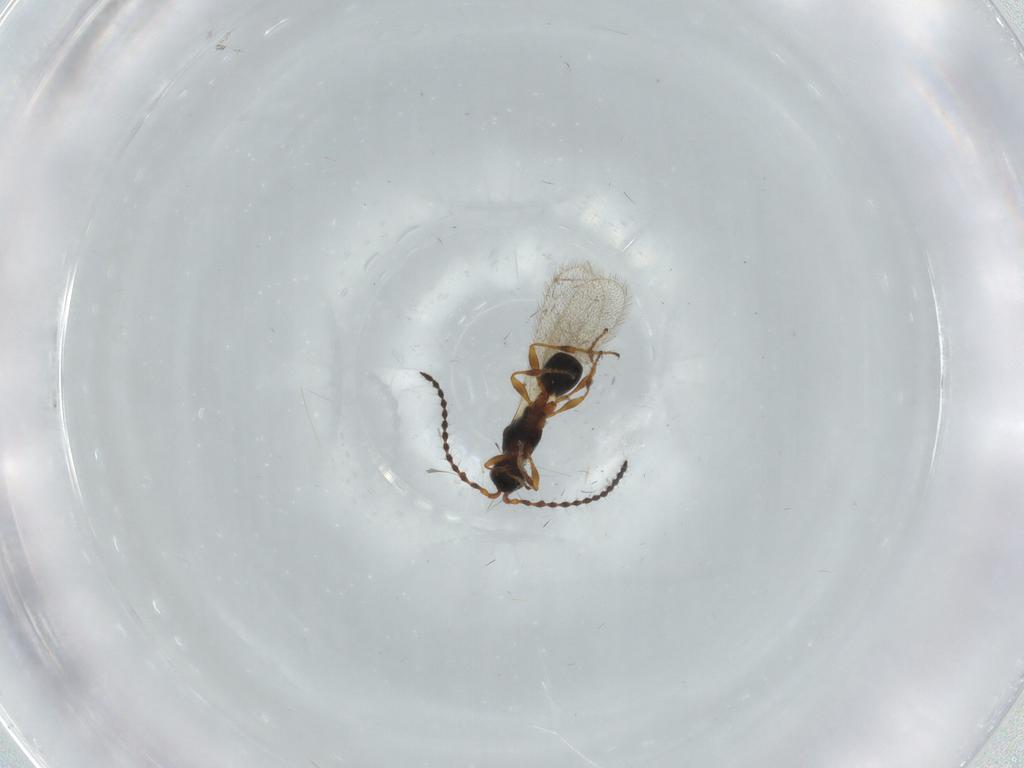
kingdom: Animalia
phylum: Arthropoda
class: Insecta
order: Hymenoptera
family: Diapriidae
